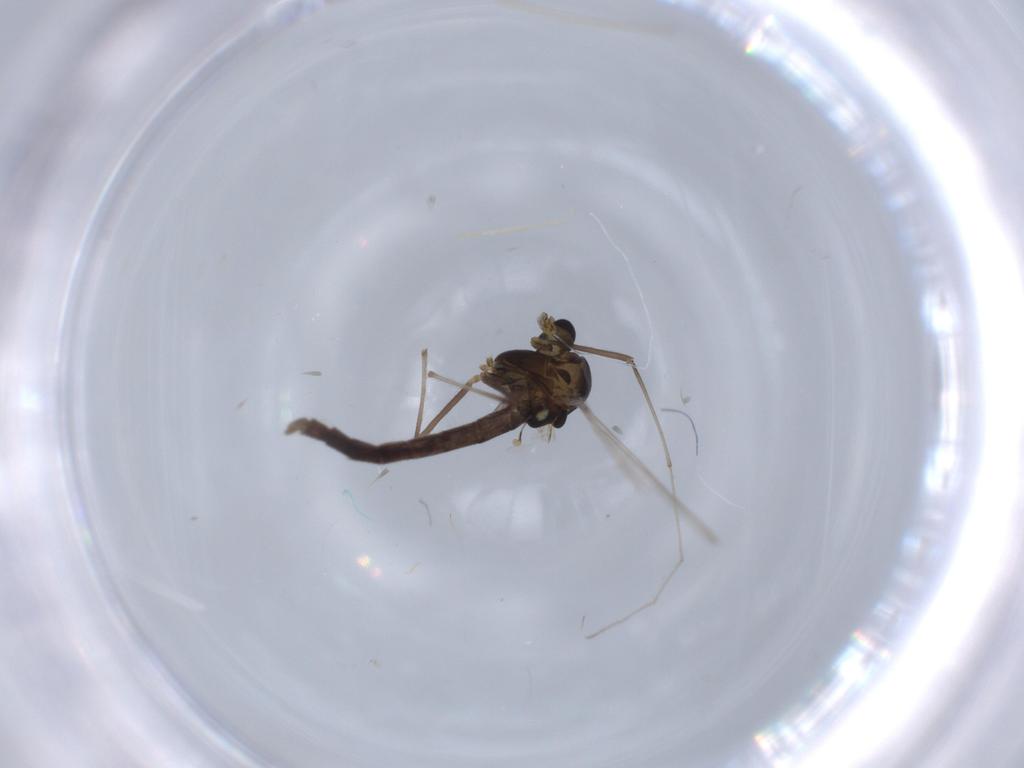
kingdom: Animalia
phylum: Arthropoda
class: Insecta
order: Diptera
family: Chironomidae
